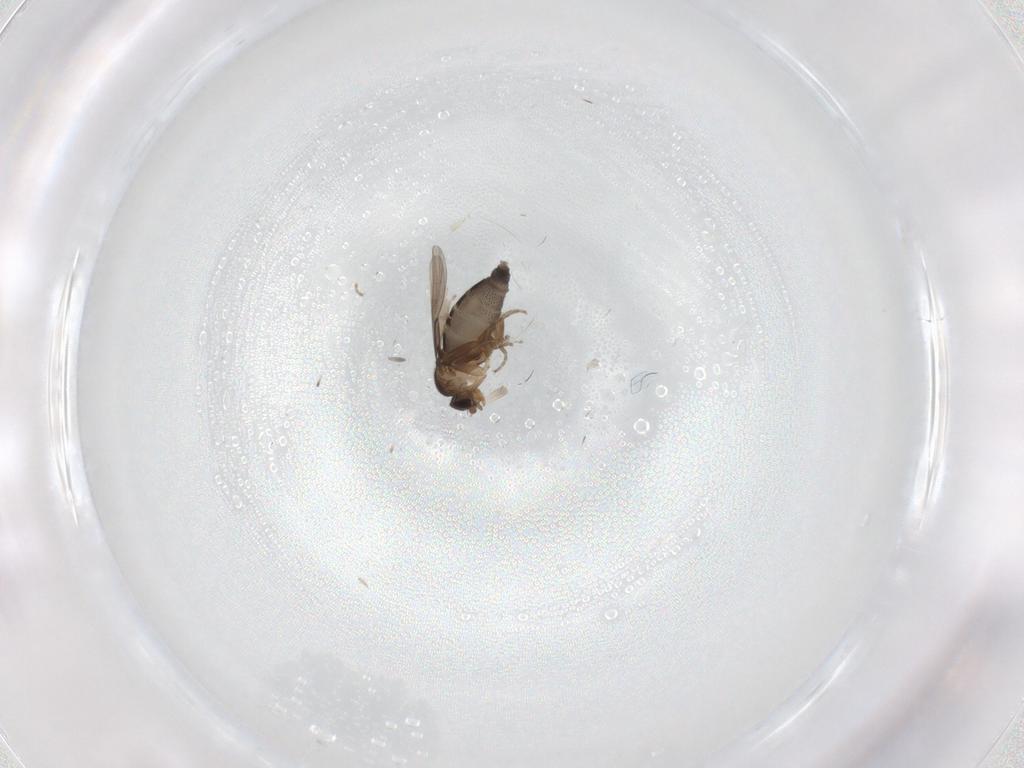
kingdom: Animalia
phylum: Arthropoda
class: Insecta
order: Diptera
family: Phoridae
